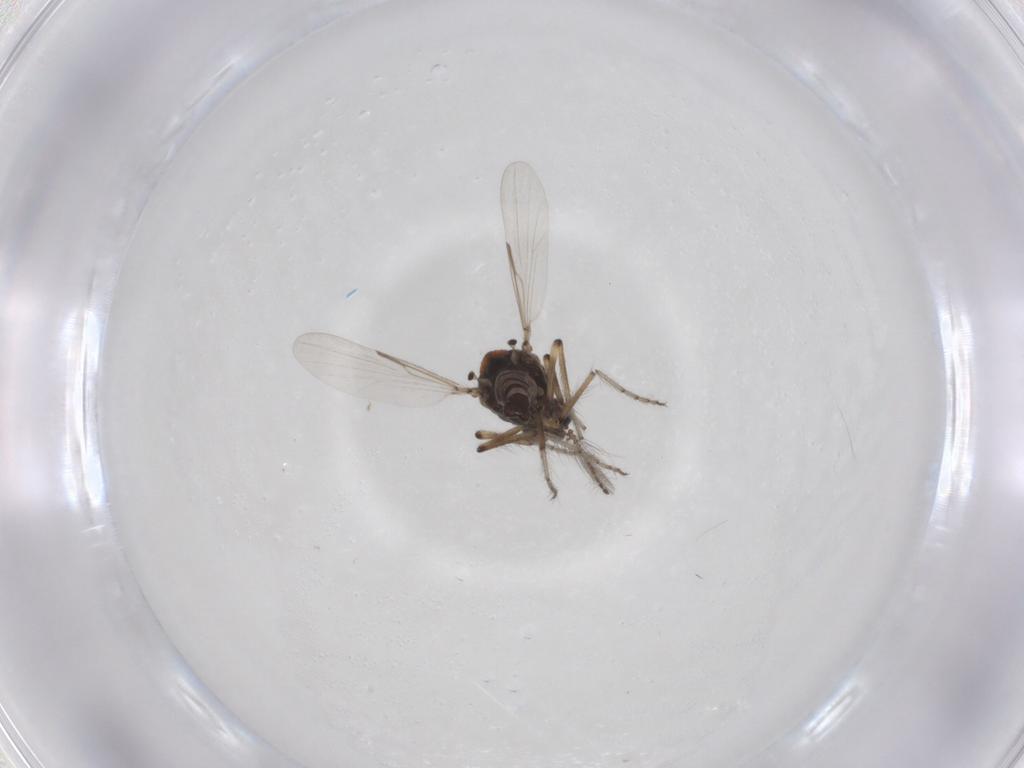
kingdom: Animalia
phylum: Arthropoda
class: Insecta
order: Diptera
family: Ceratopogonidae
